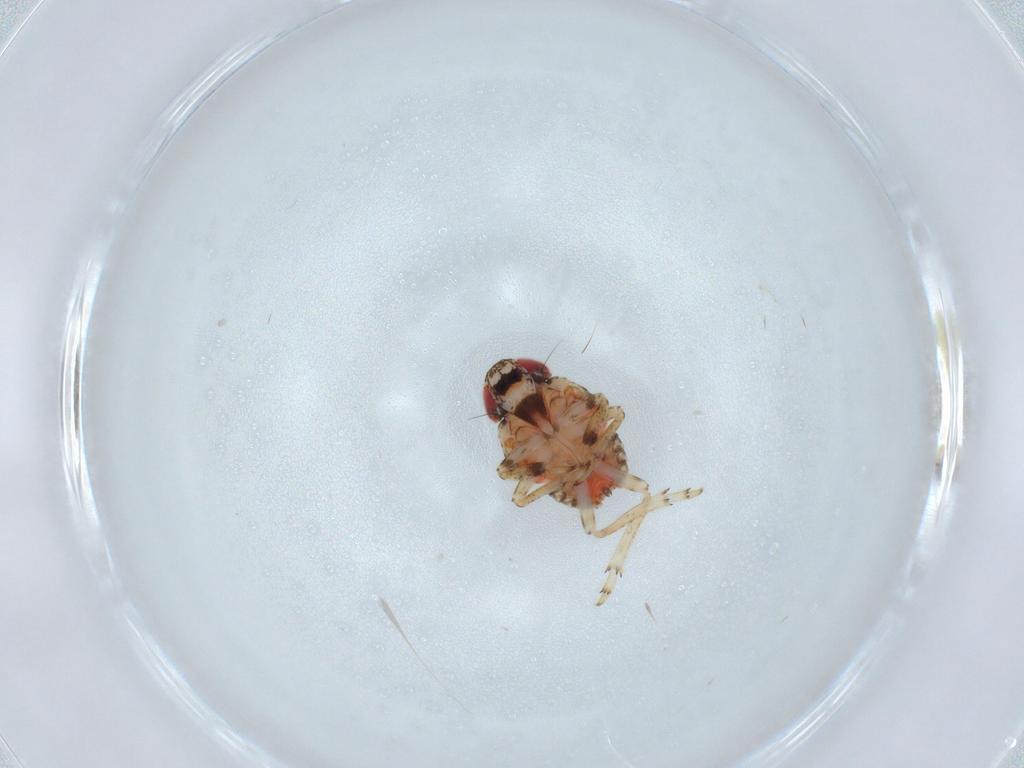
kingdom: Animalia
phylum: Arthropoda
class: Insecta
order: Hemiptera
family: Issidae
